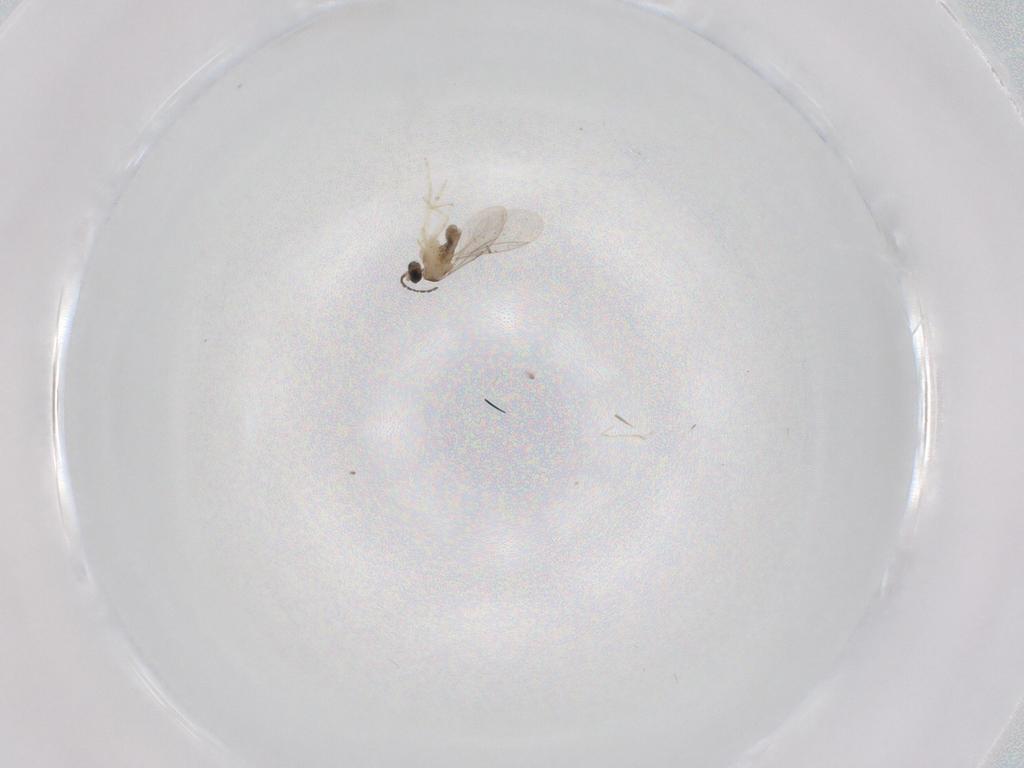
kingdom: Animalia
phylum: Arthropoda
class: Insecta
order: Diptera
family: Cecidomyiidae
